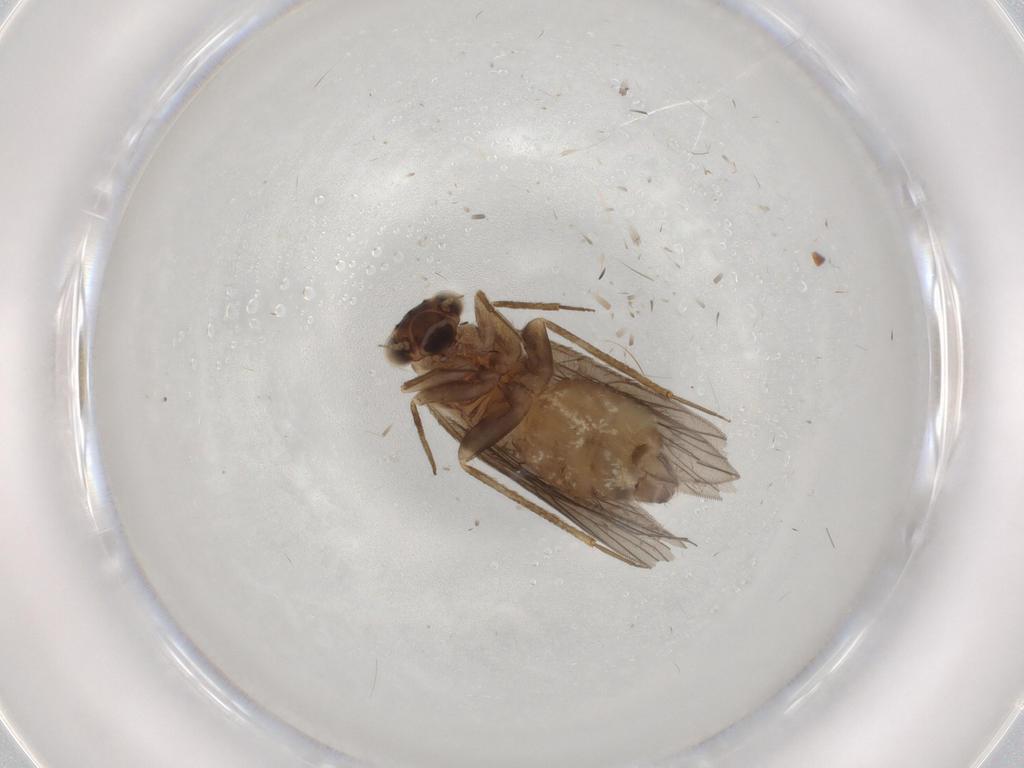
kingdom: Animalia
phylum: Arthropoda
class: Insecta
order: Psocodea
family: Lepidopsocidae
